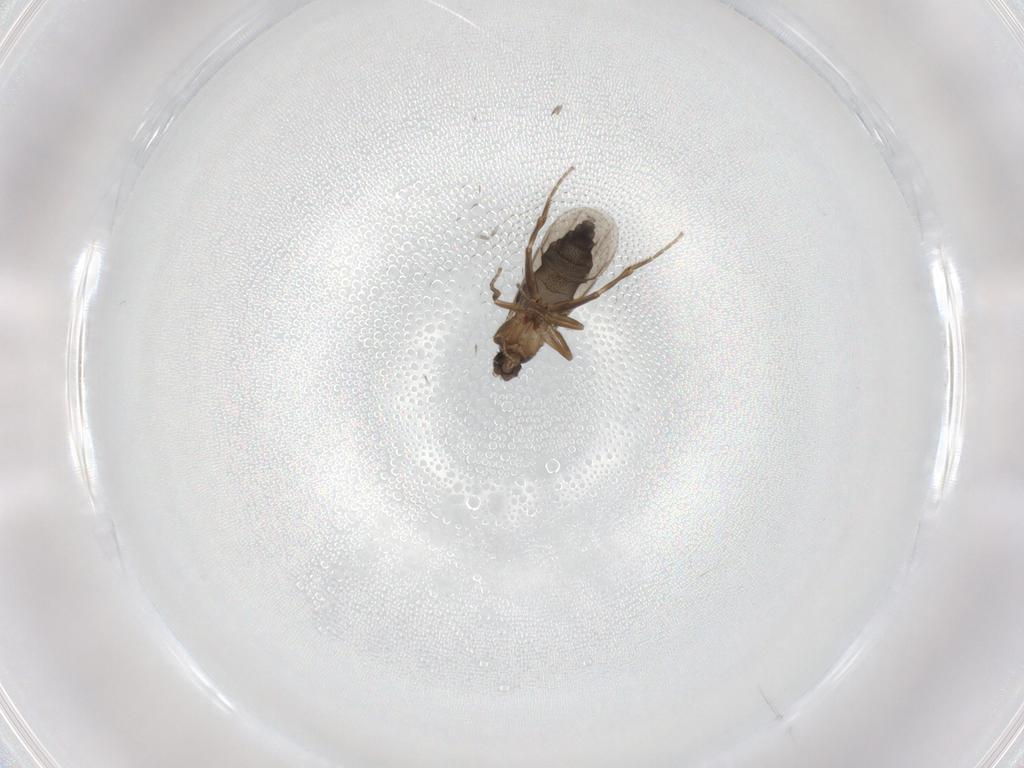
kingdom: Animalia
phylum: Arthropoda
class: Insecta
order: Diptera
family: Phoridae
